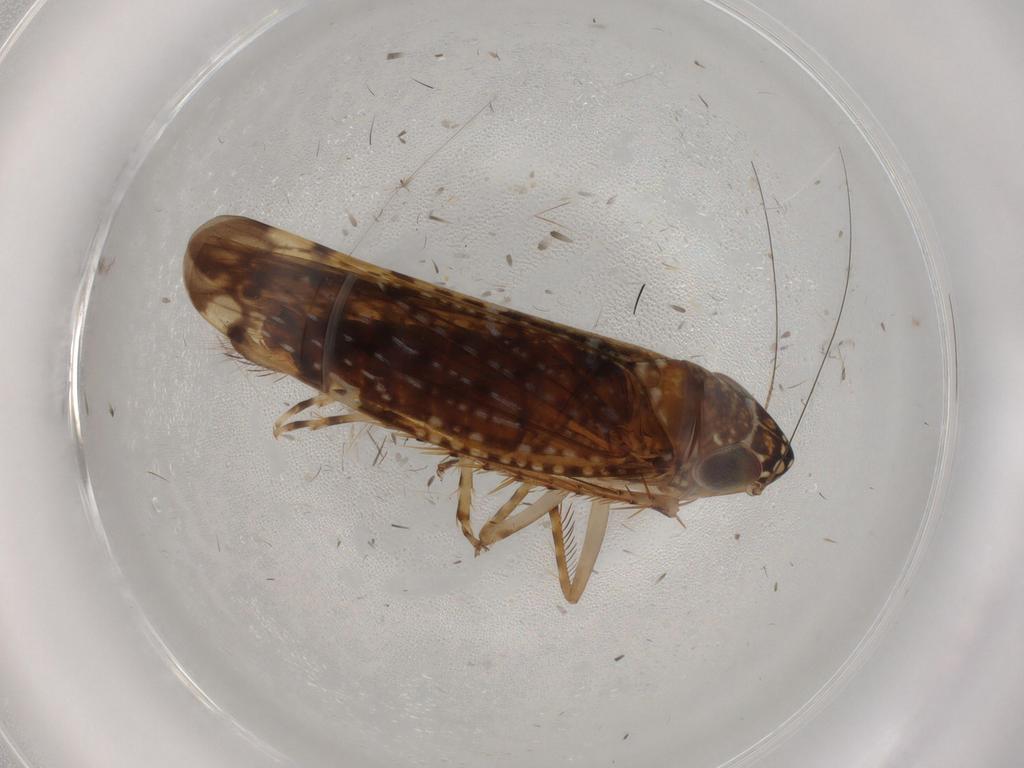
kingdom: Animalia
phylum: Arthropoda
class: Insecta
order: Hemiptera
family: Cicadellidae
